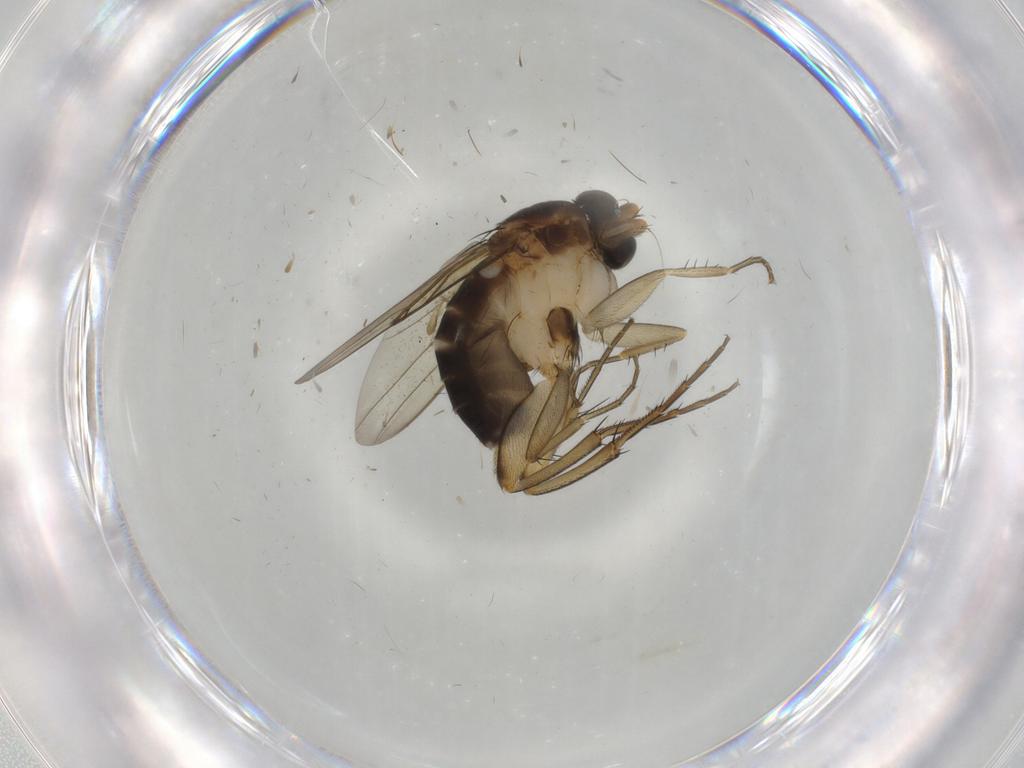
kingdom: Animalia
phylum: Arthropoda
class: Insecta
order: Diptera
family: Phoridae
